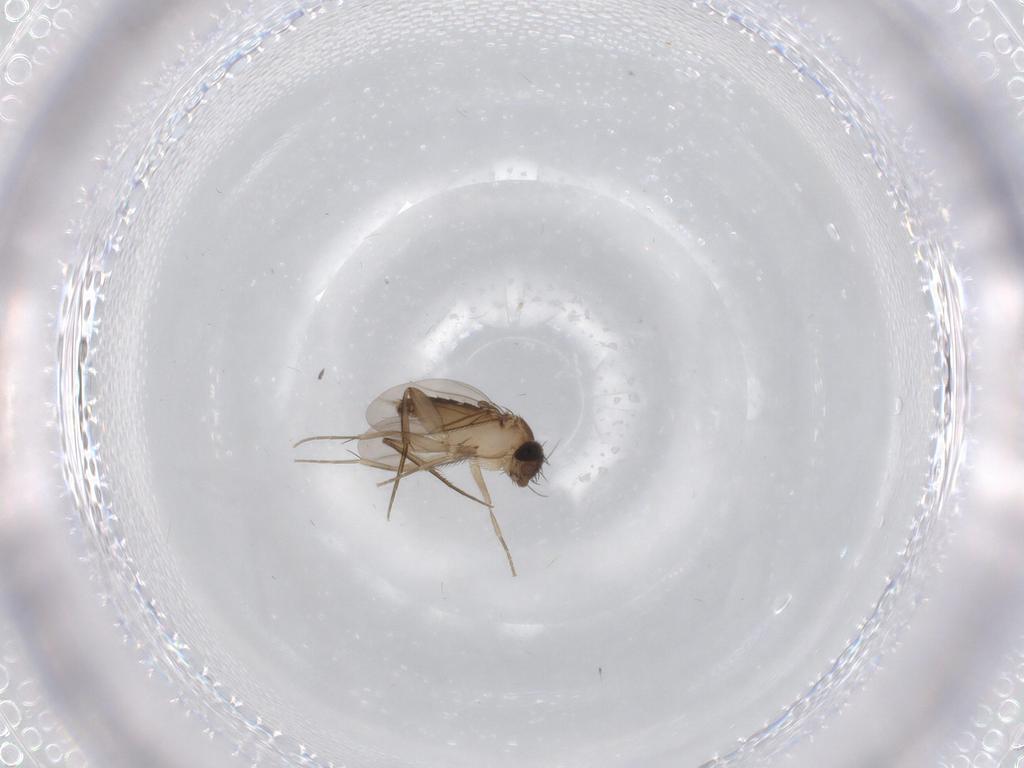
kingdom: Animalia
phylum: Arthropoda
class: Insecta
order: Diptera
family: Phoridae
